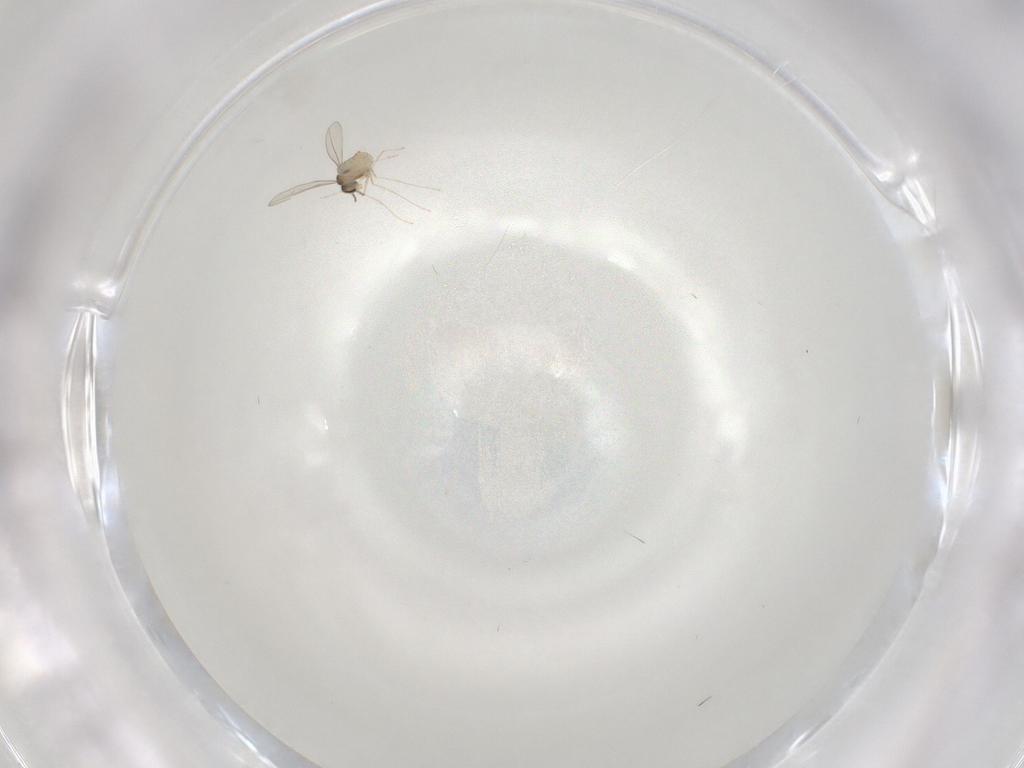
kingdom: Animalia
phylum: Arthropoda
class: Insecta
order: Diptera
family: Cecidomyiidae
